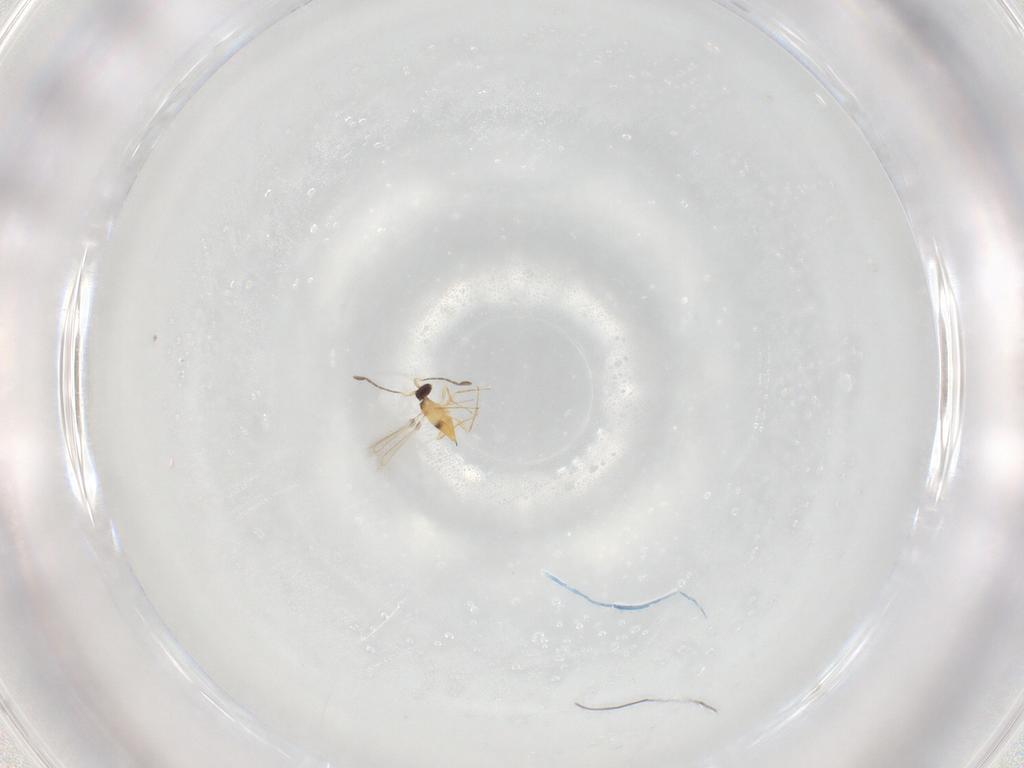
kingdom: Animalia
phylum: Arthropoda
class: Insecta
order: Hymenoptera
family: Mymaridae
